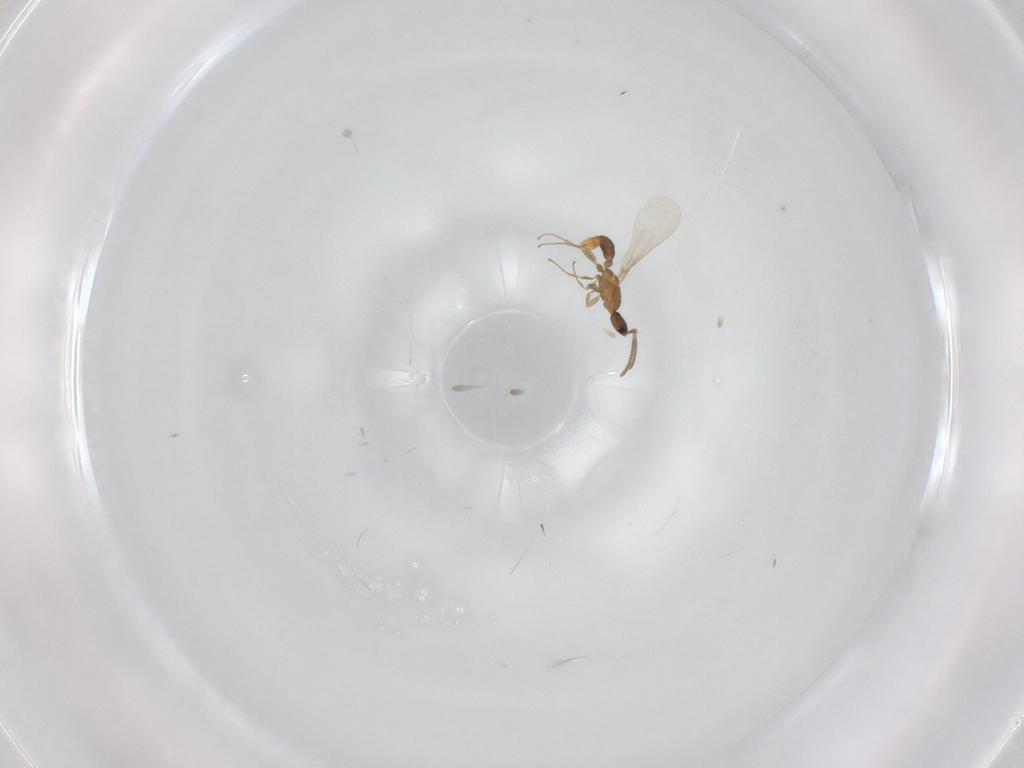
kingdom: Animalia
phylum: Arthropoda
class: Insecta
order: Hymenoptera
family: Formicidae
